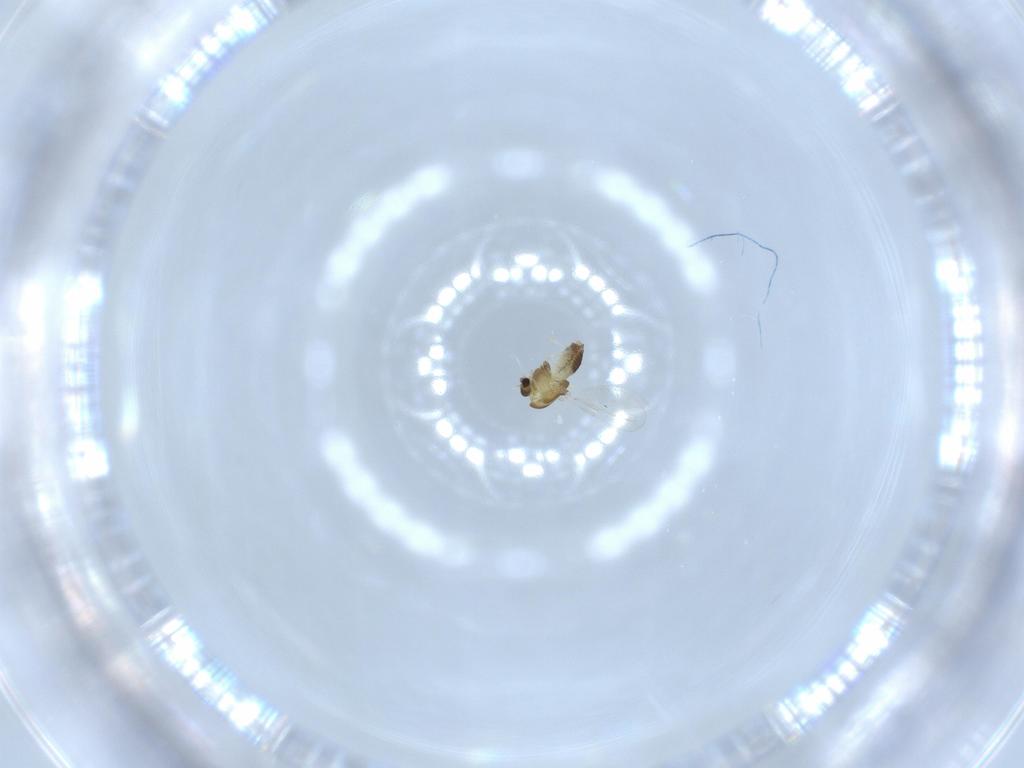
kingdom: Animalia
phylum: Arthropoda
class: Insecta
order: Diptera
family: Chironomidae
